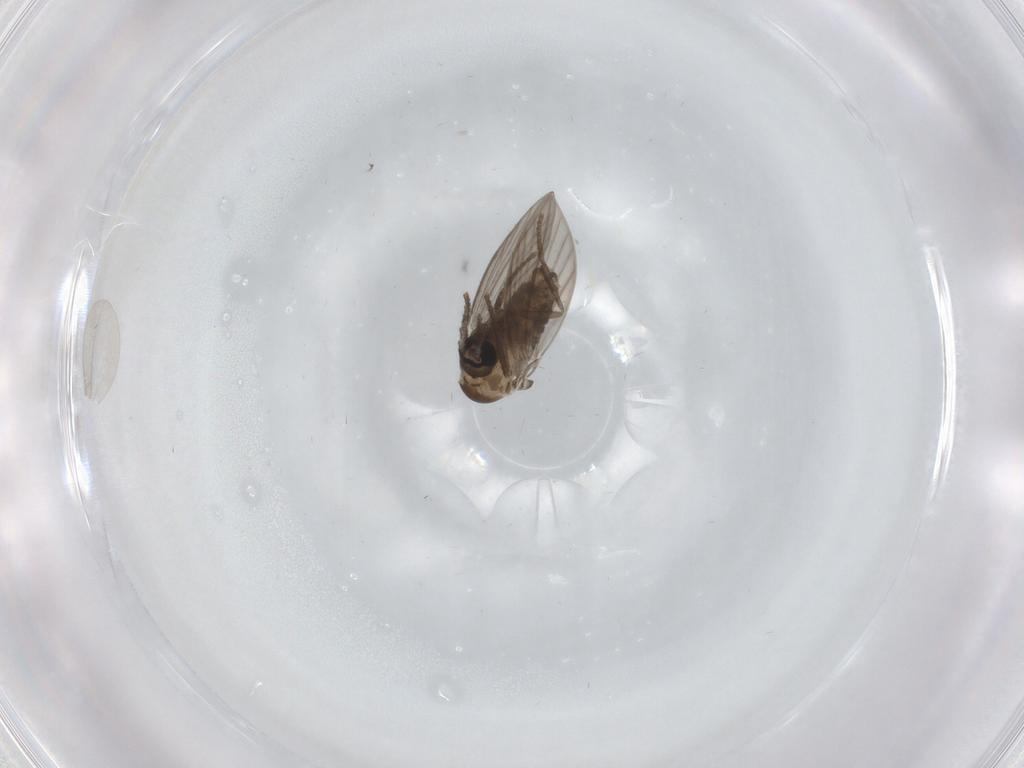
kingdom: Animalia
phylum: Arthropoda
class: Insecta
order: Diptera
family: Psychodidae
